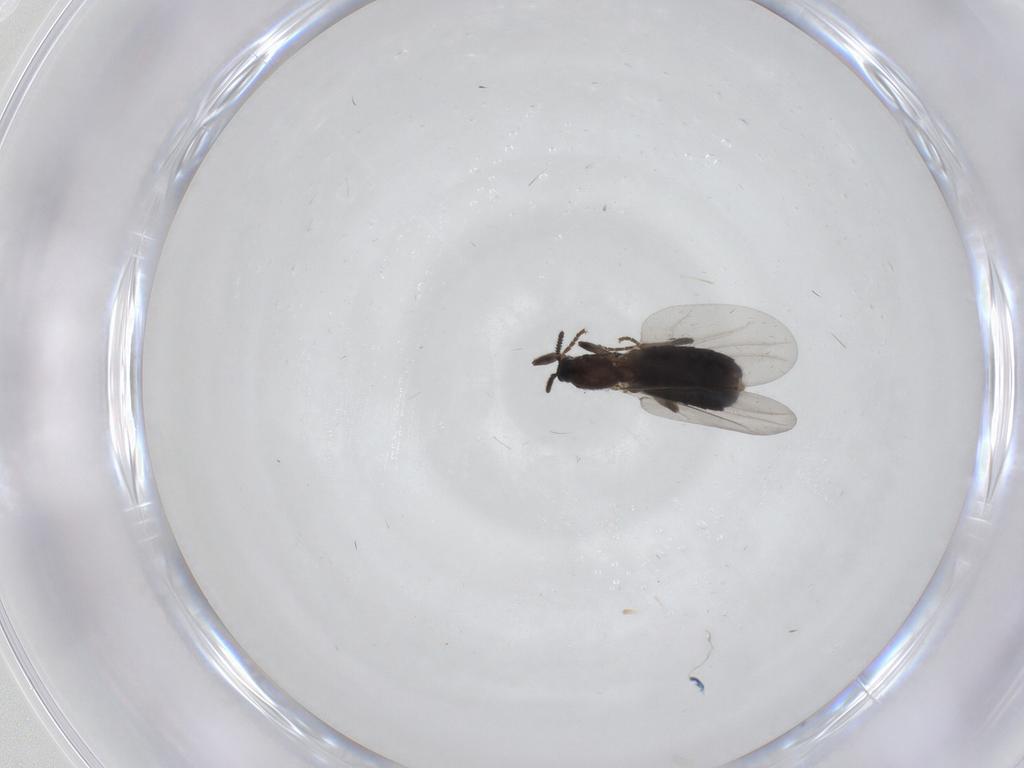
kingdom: Animalia
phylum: Arthropoda
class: Insecta
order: Diptera
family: Scatopsidae
